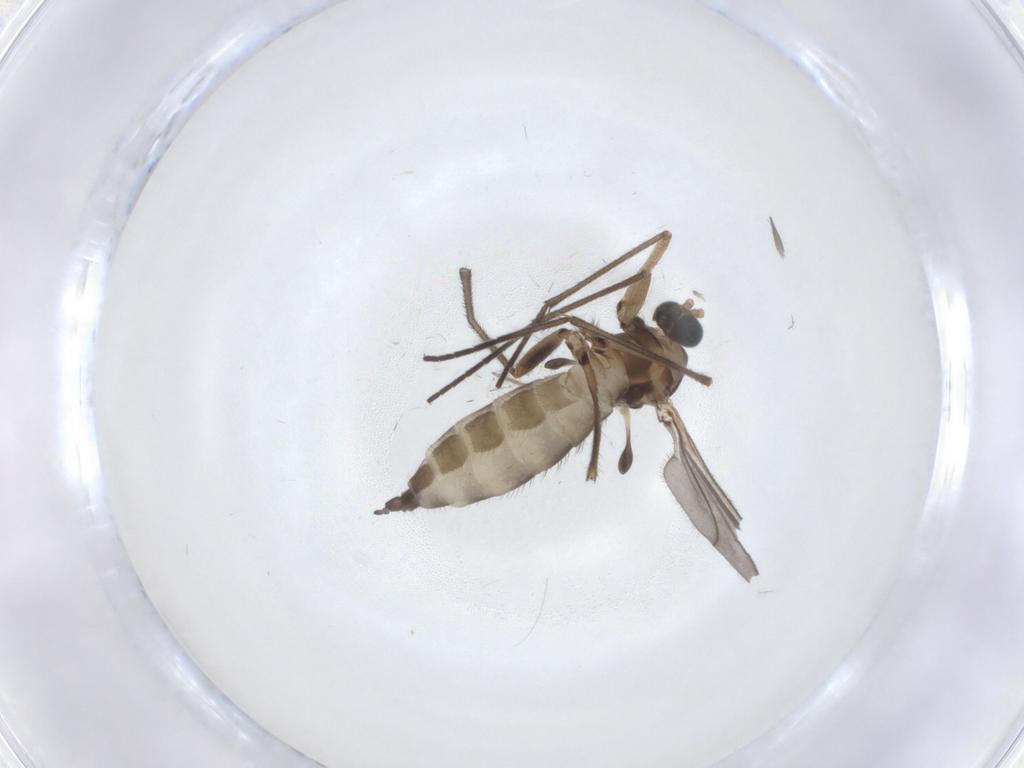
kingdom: Animalia
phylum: Arthropoda
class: Insecta
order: Diptera
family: Sciaridae
